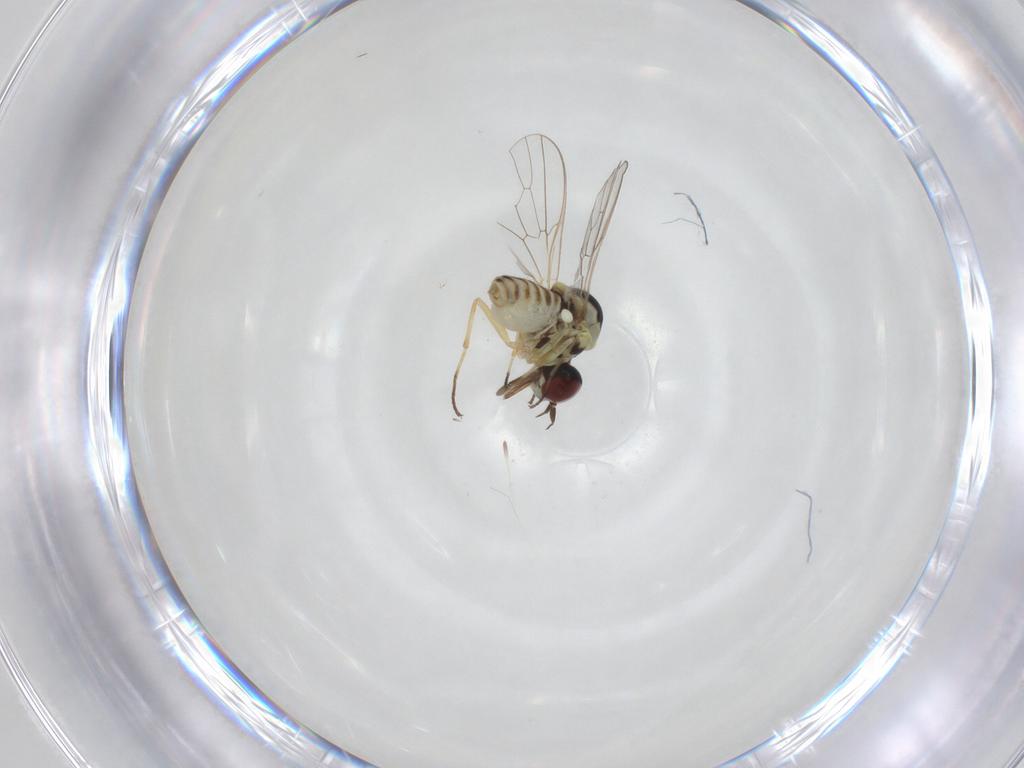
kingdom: Animalia
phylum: Arthropoda
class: Insecta
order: Diptera
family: Bombyliidae
